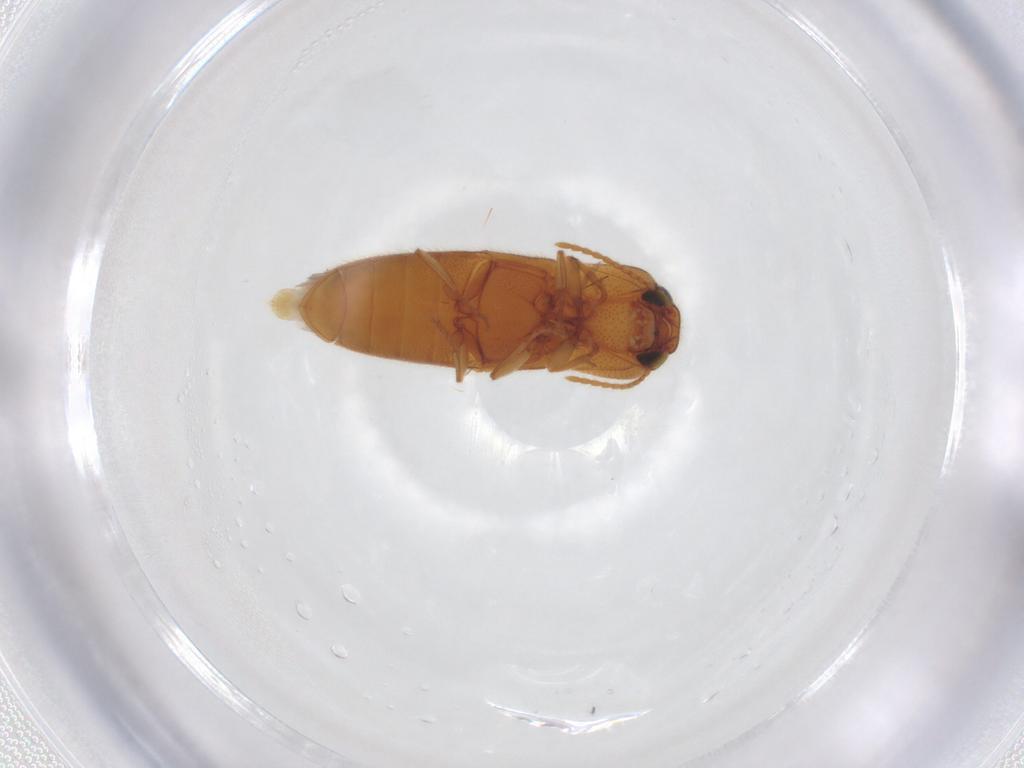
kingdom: Animalia
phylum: Arthropoda
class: Insecta
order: Coleoptera
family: Elateridae
